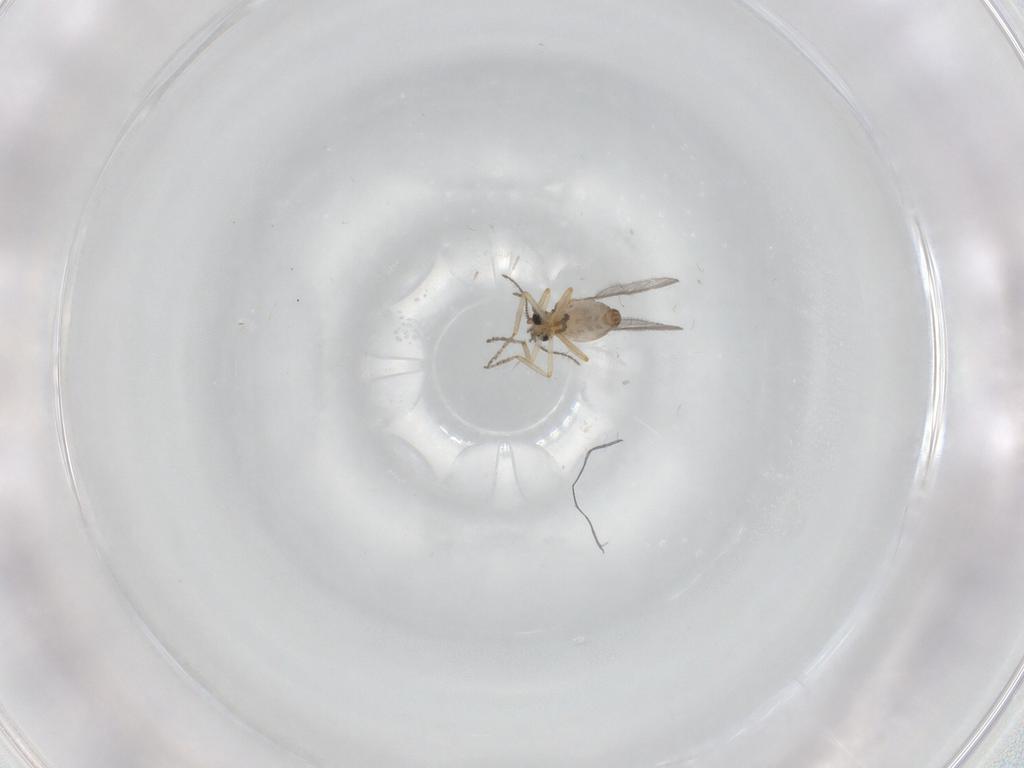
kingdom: Animalia
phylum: Arthropoda
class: Insecta
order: Diptera
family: Ceratopogonidae
